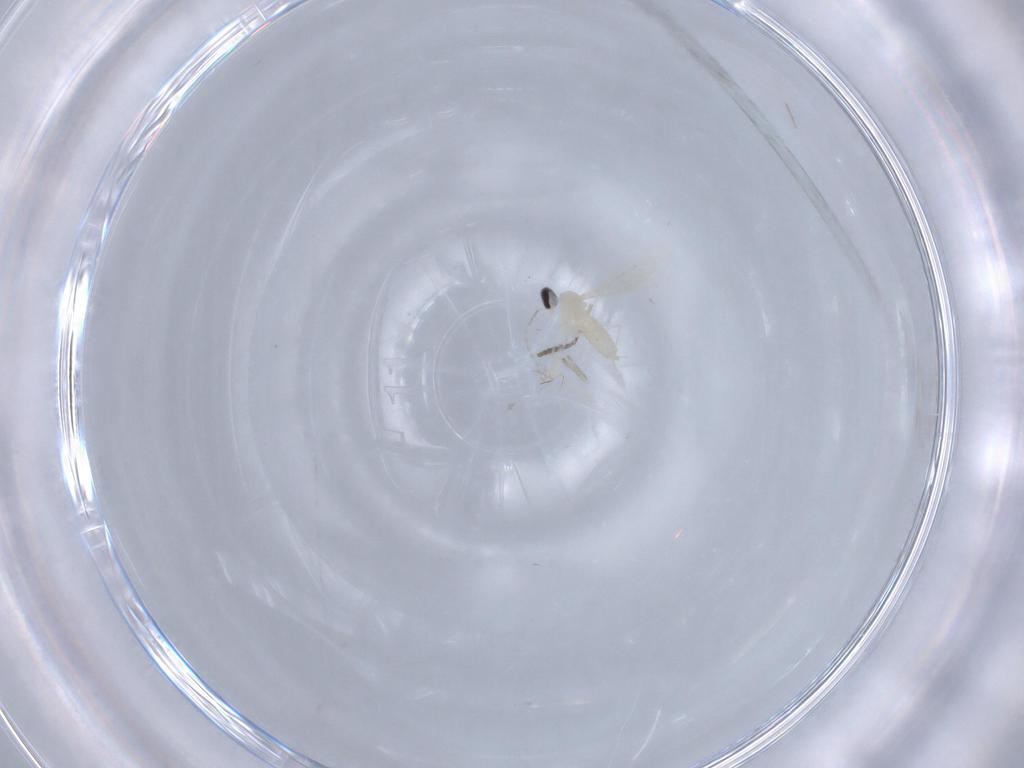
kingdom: Animalia
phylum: Arthropoda
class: Insecta
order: Diptera
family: Cecidomyiidae
